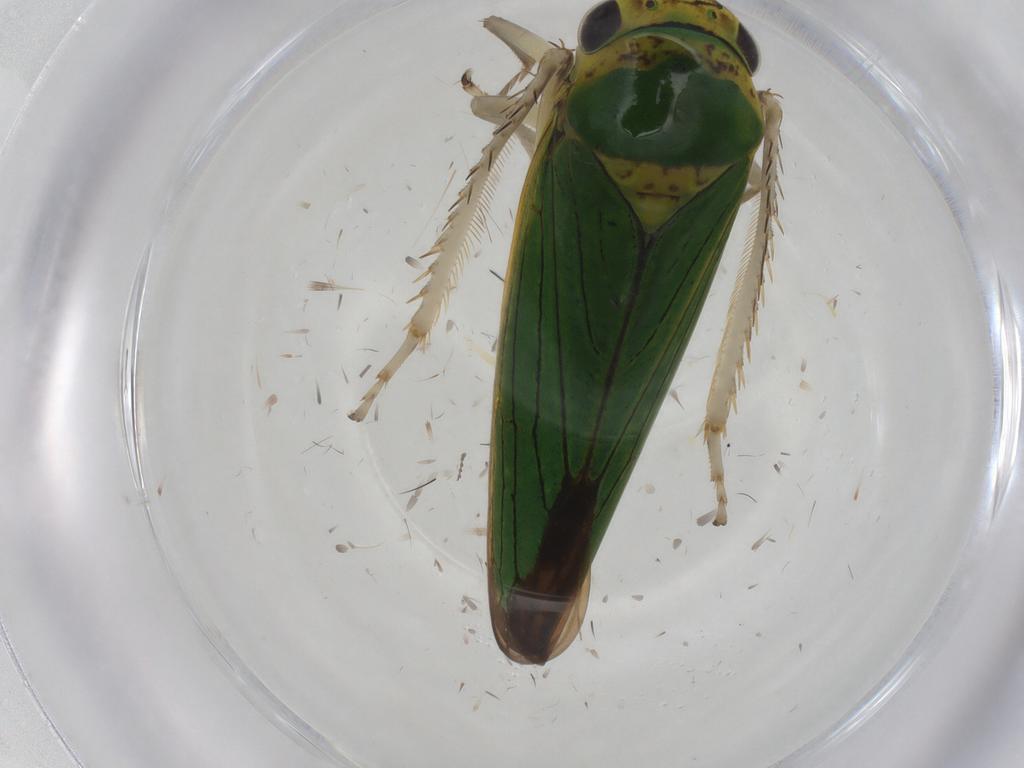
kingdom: Animalia
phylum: Arthropoda
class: Insecta
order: Hemiptera
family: Cicadellidae
